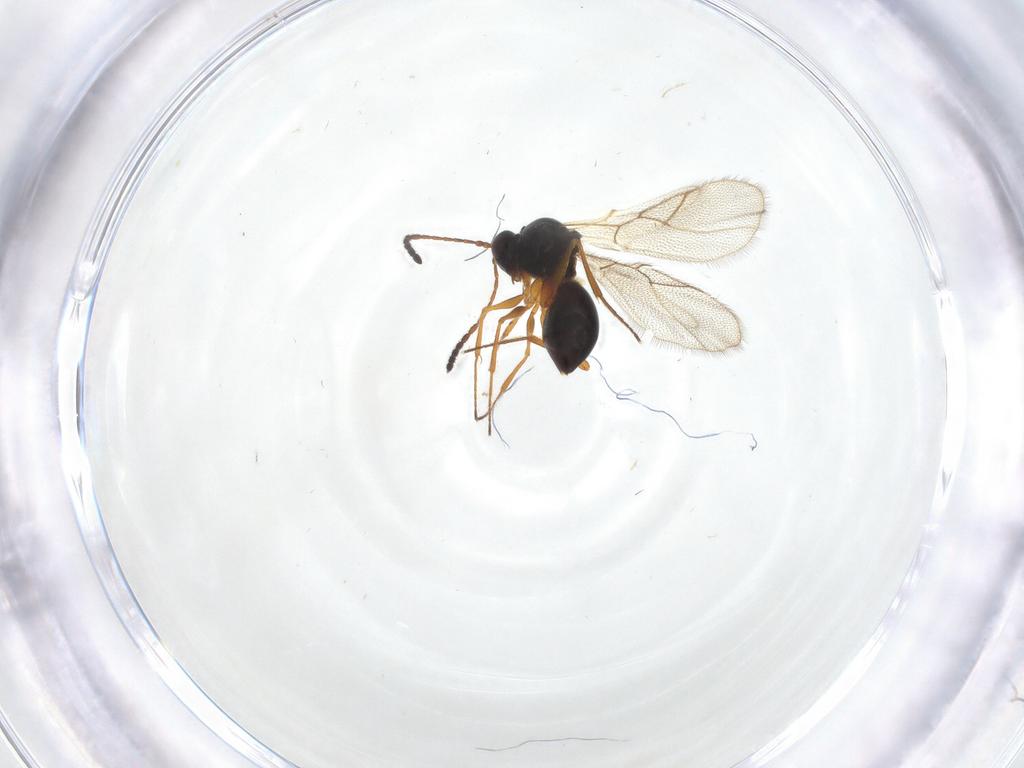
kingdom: Animalia
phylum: Arthropoda
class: Insecta
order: Hymenoptera
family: Figitidae
